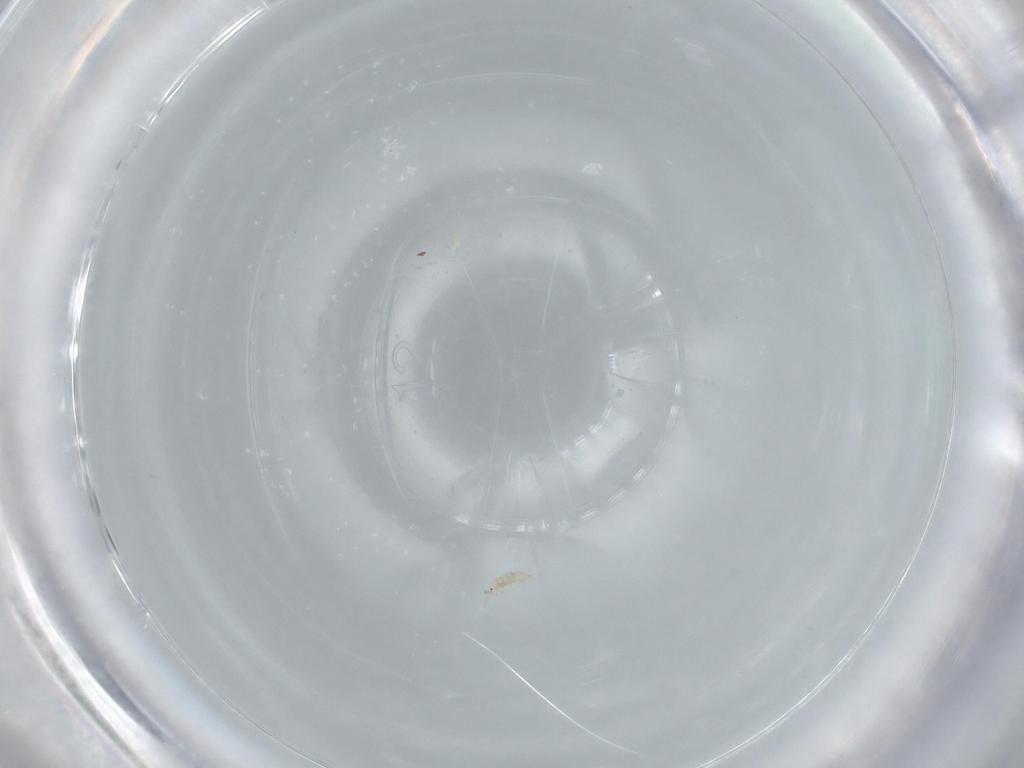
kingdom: Animalia
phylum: Arthropoda
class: Insecta
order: Thysanoptera
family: Thripidae
